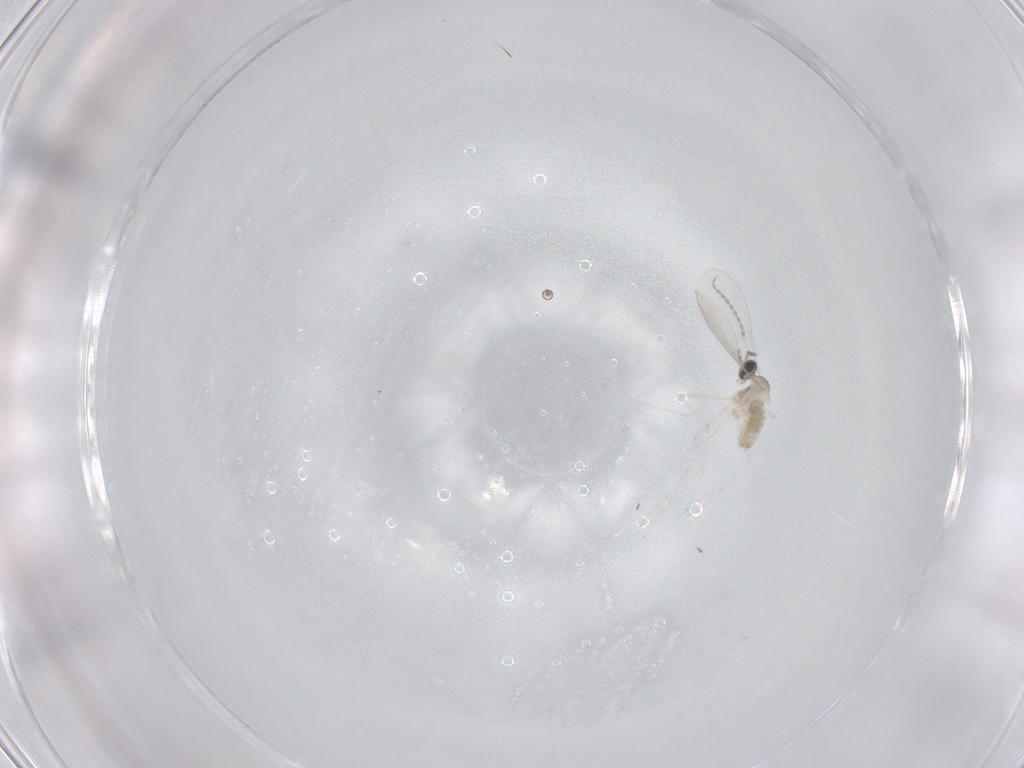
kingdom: Animalia
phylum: Arthropoda
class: Insecta
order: Diptera
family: Cecidomyiidae
